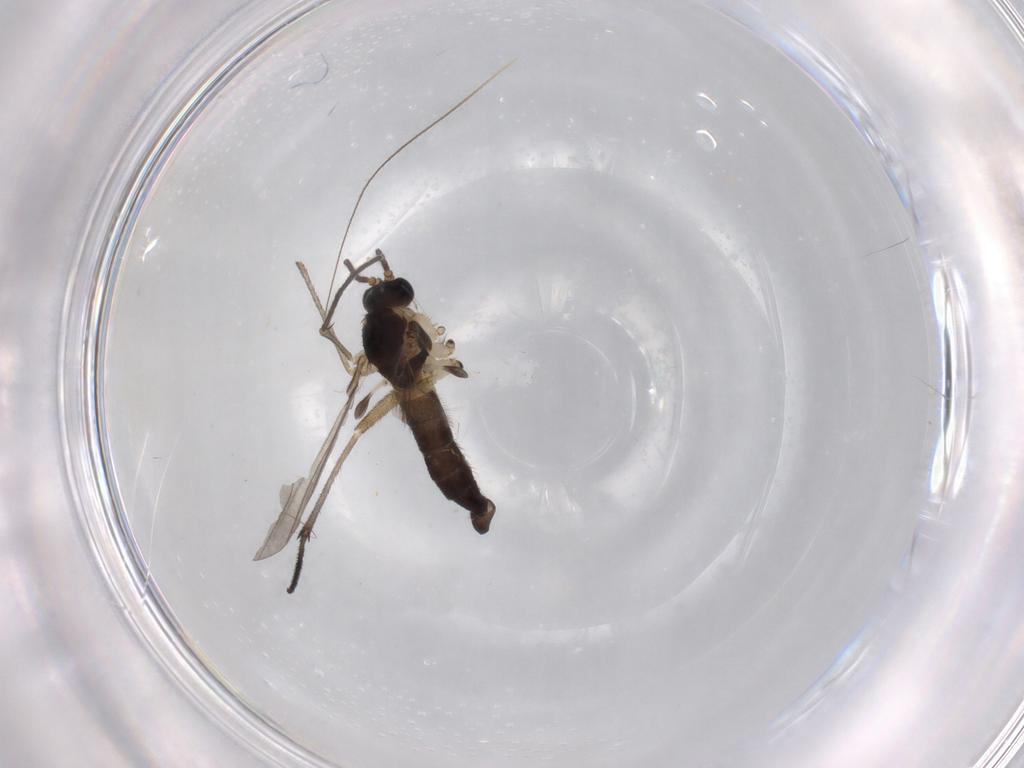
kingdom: Animalia
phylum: Arthropoda
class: Insecta
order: Diptera
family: Sciaridae
